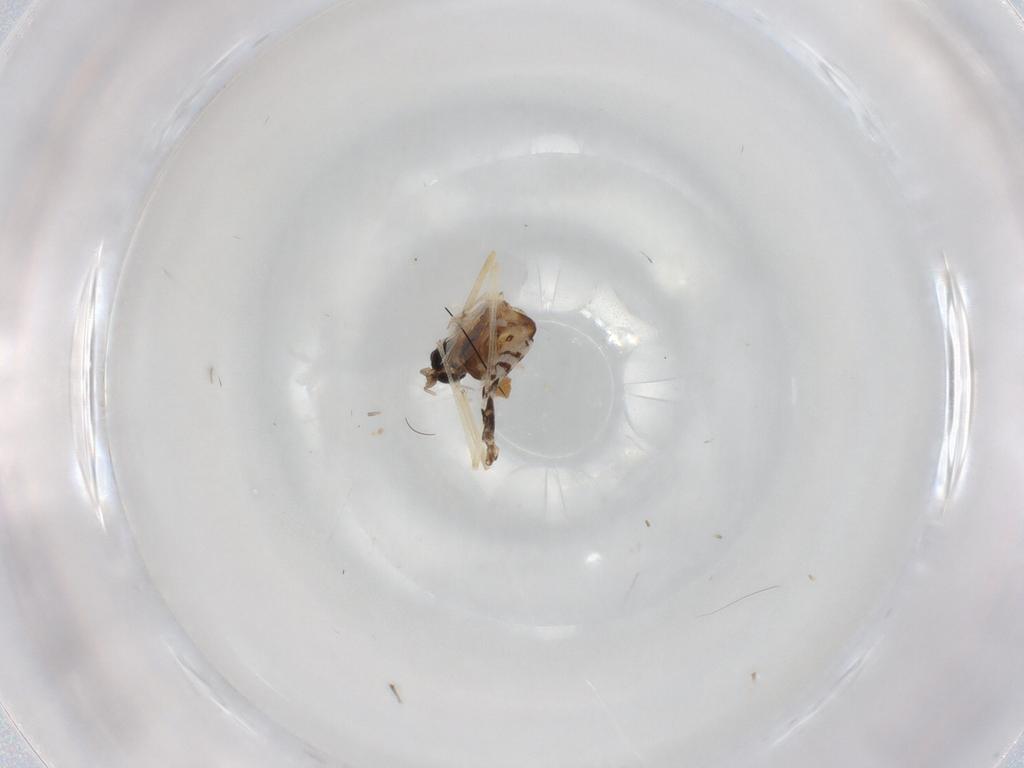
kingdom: Animalia
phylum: Arthropoda
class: Insecta
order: Diptera
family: Chironomidae
